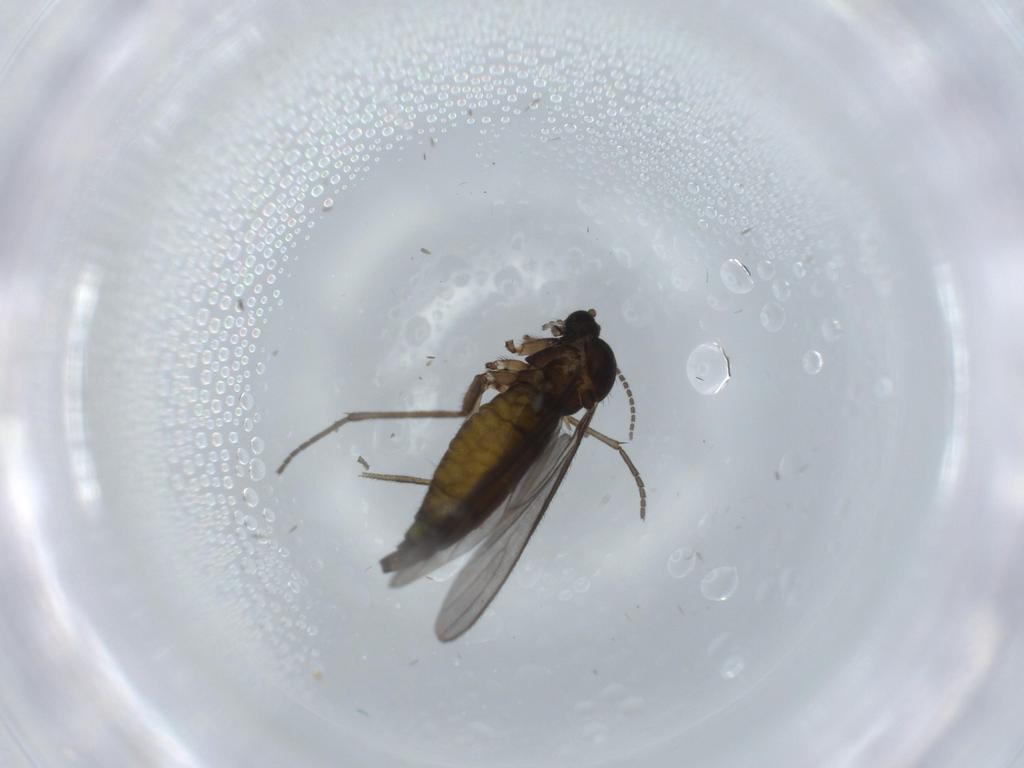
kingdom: Animalia
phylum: Arthropoda
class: Insecta
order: Diptera
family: Sciaridae
